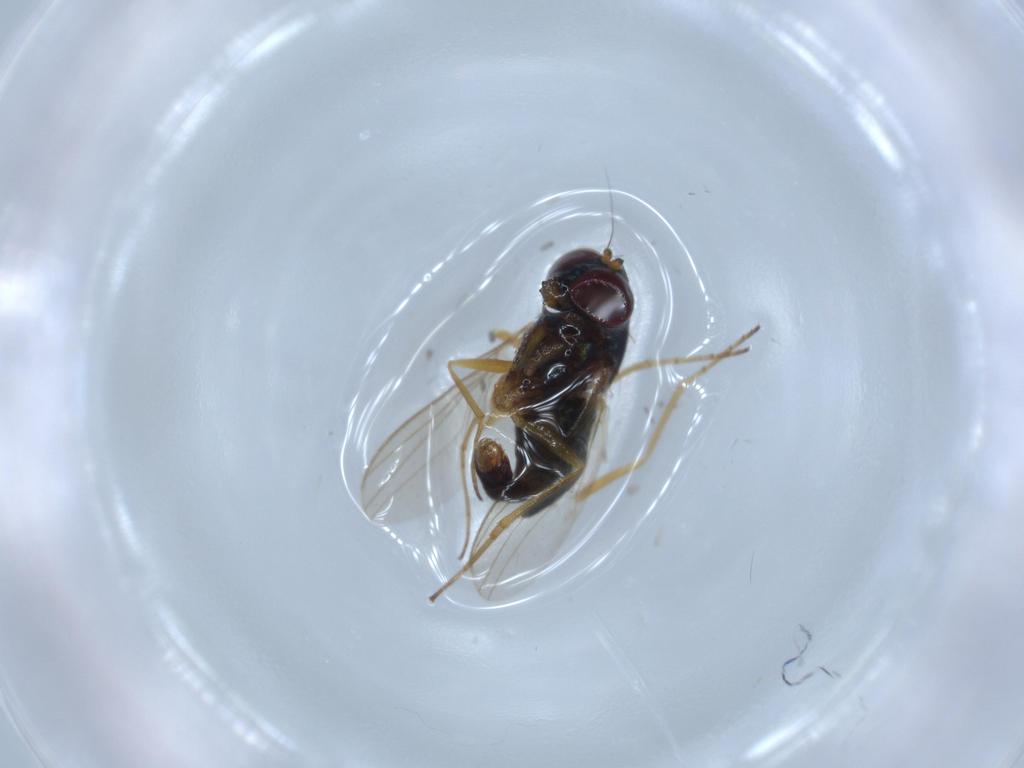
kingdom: Animalia
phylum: Arthropoda
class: Insecta
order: Diptera
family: Dolichopodidae
